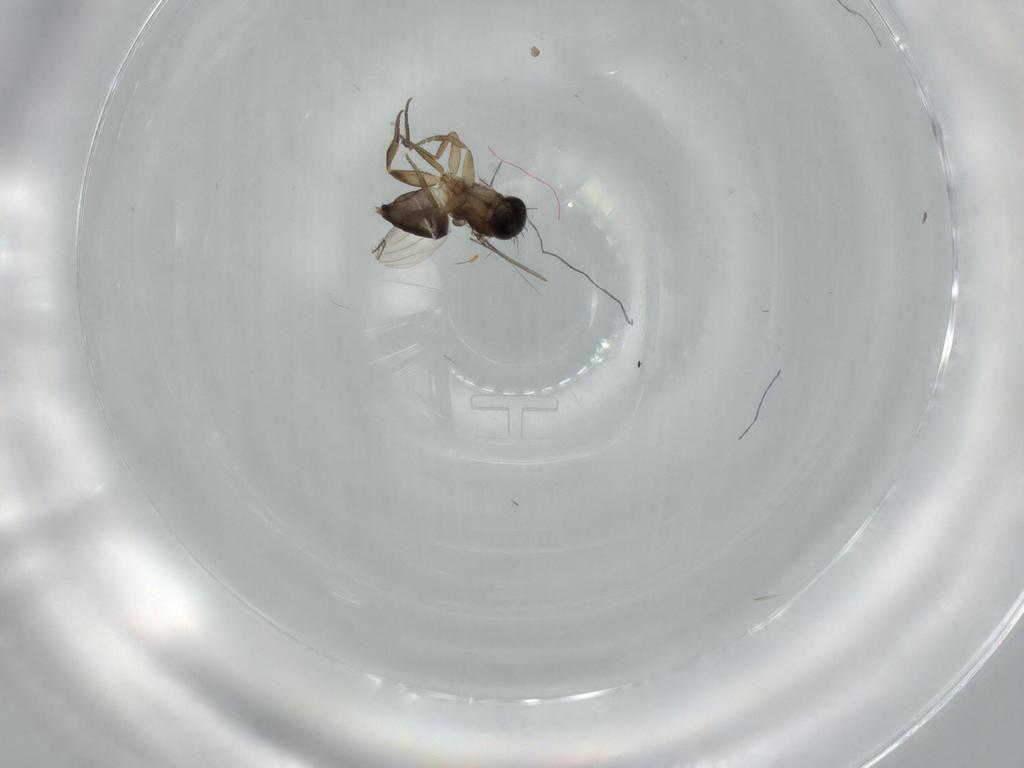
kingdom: Animalia
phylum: Arthropoda
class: Insecta
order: Diptera
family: Phoridae
